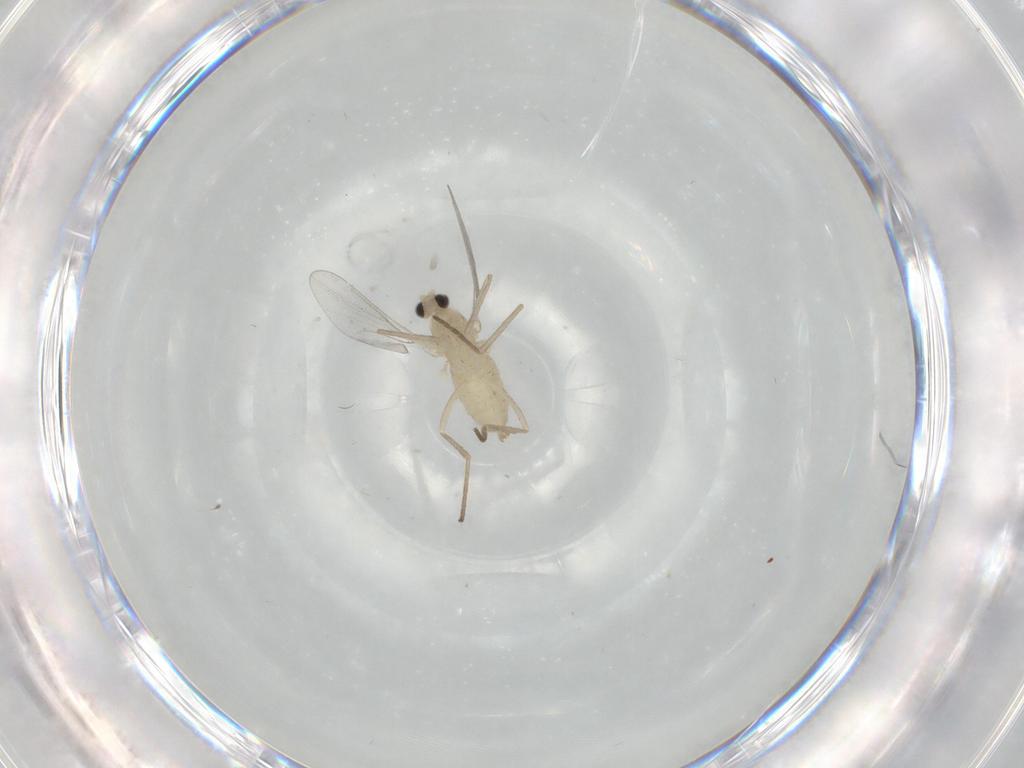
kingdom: Animalia
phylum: Arthropoda
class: Insecta
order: Diptera
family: Cecidomyiidae
